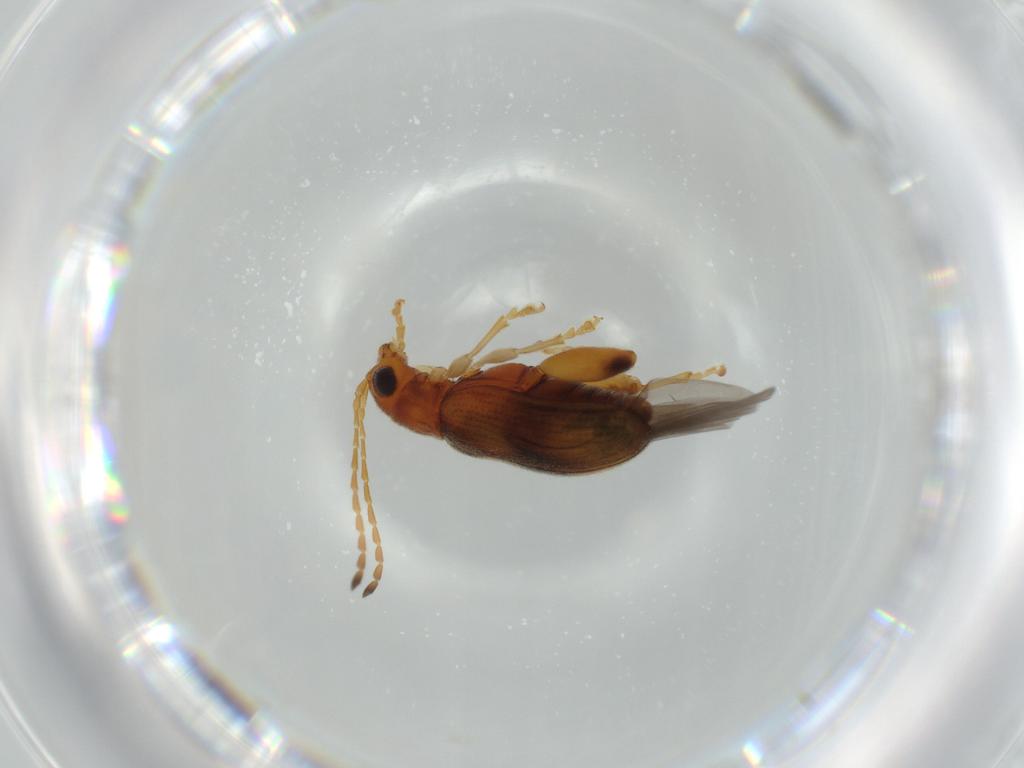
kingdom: Animalia
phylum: Arthropoda
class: Insecta
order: Coleoptera
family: Chrysomelidae
